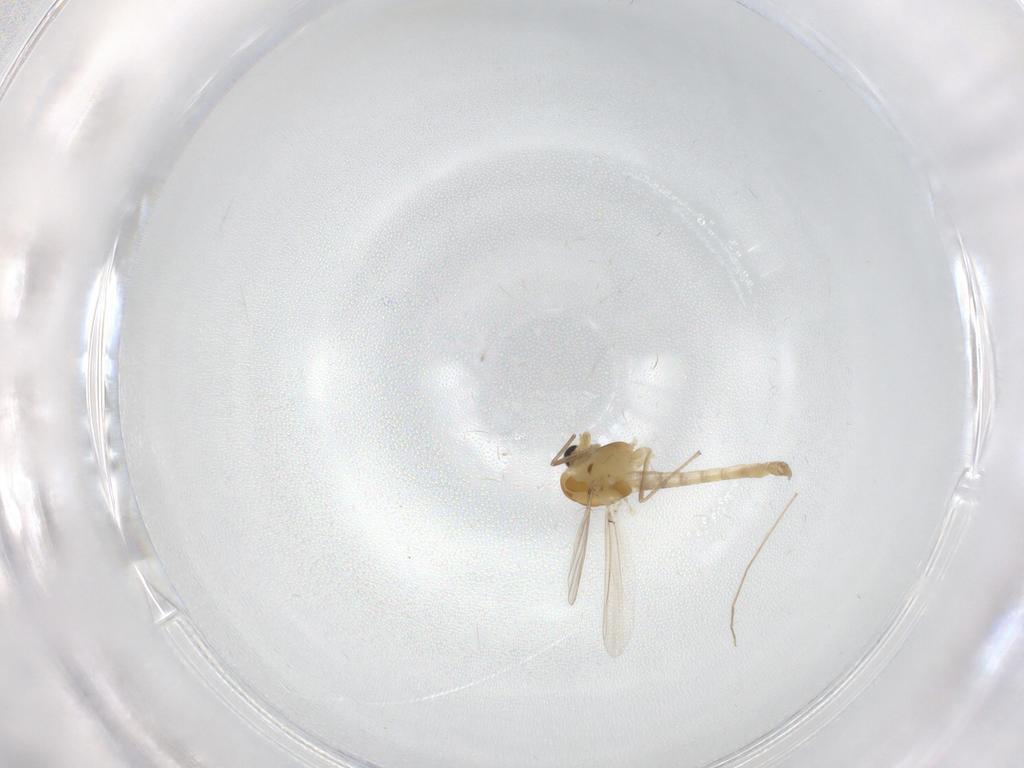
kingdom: Animalia
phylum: Arthropoda
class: Insecta
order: Diptera
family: Chironomidae
